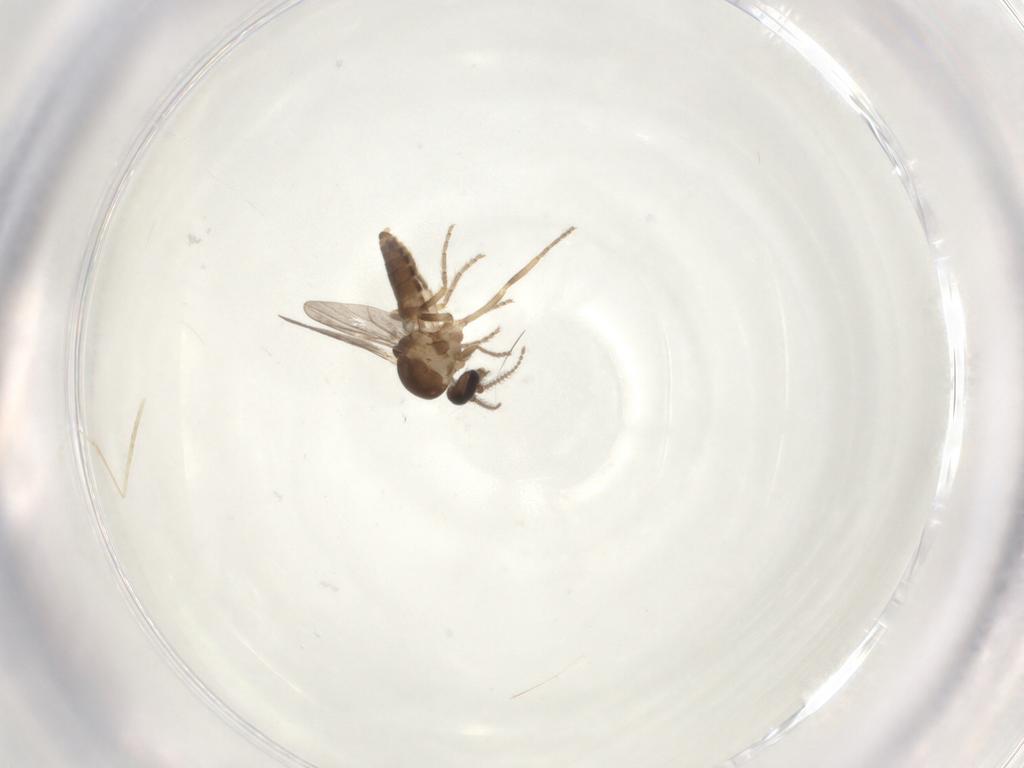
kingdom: Animalia
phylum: Arthropoda
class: Insecta
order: Diptera
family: Ceratopogonidae
